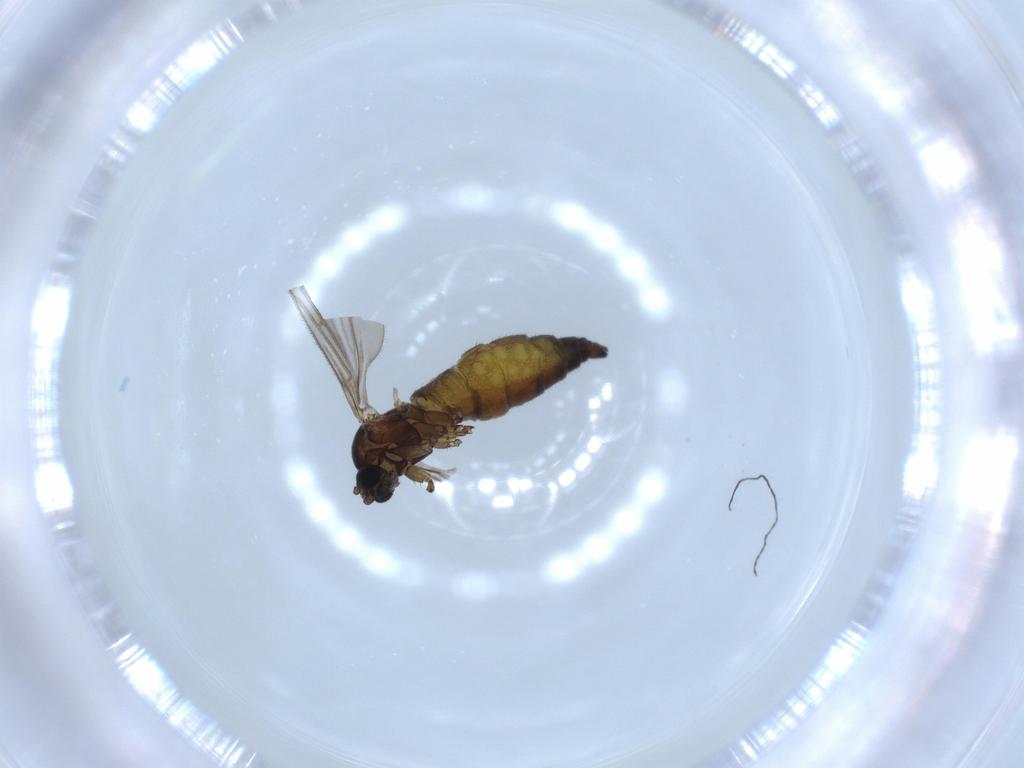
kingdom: Animalia
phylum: Arthropoda
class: Insecta
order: Diptera
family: Sciaridae
